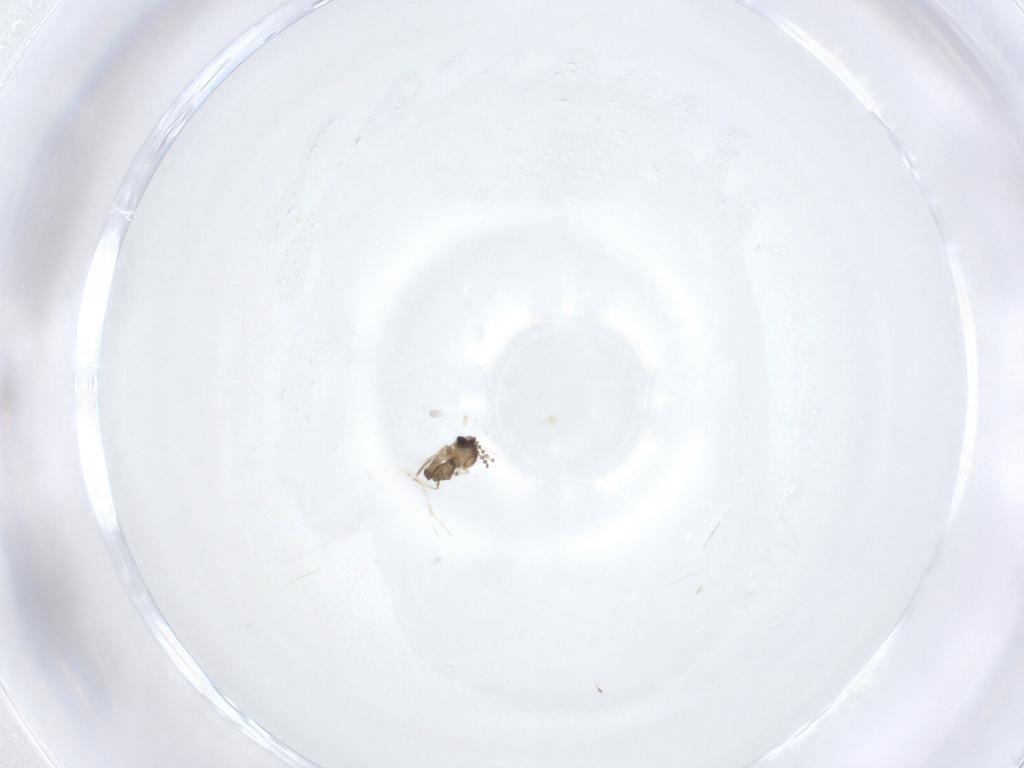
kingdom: Animalia
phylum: Arthropoda
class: Insecta
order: Diptera
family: Cecidomyiidae
